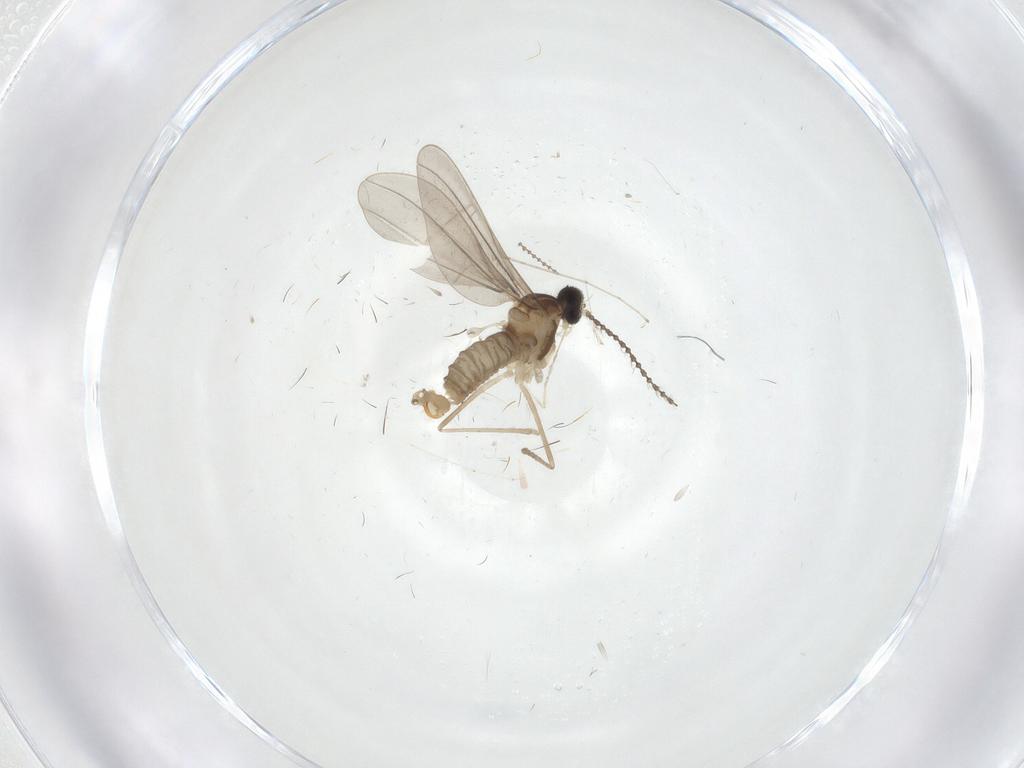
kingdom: Animalia
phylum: Arthropoda
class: Insecta
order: Diptera
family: Cecidomyiidae
